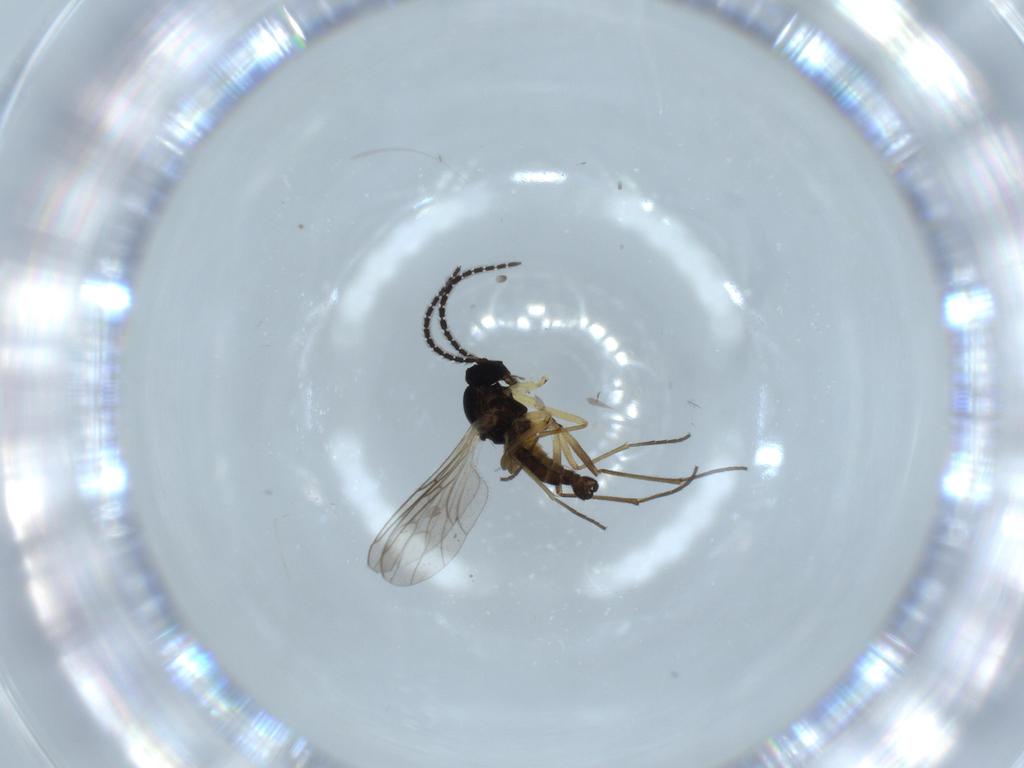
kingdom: Animalia
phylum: Arthropoda
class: Insecta
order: Diptera
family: Sciaridae
